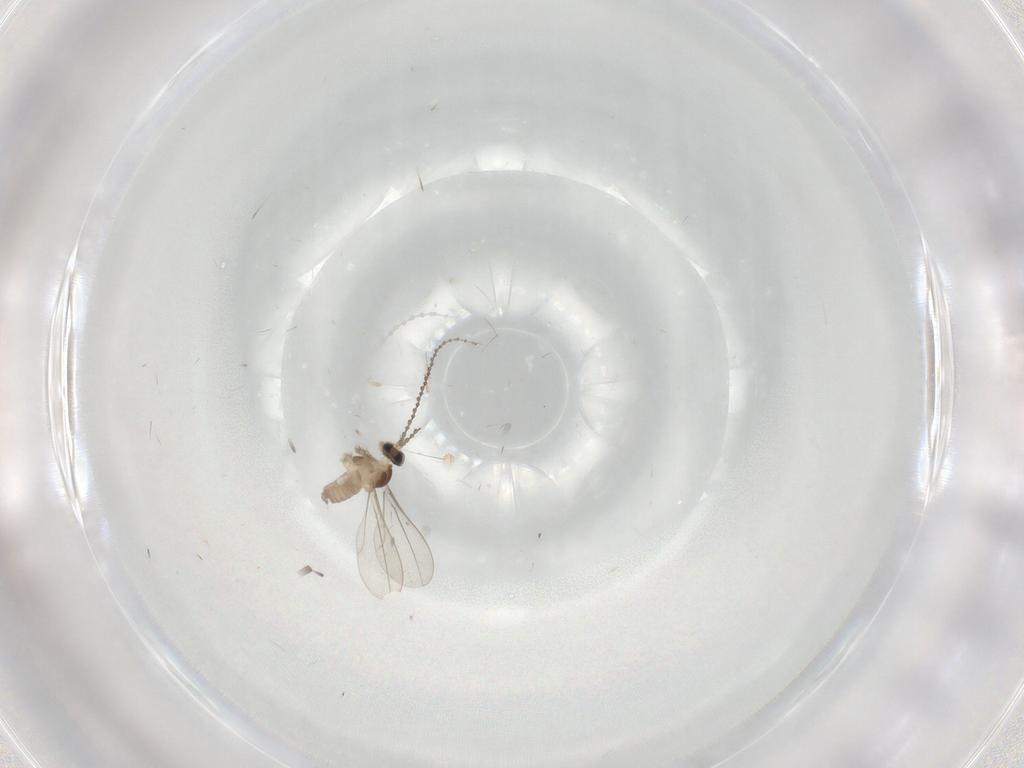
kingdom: Animalia
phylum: Arthropoda
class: Insecta
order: Diptera
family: Cecidomyiidae
